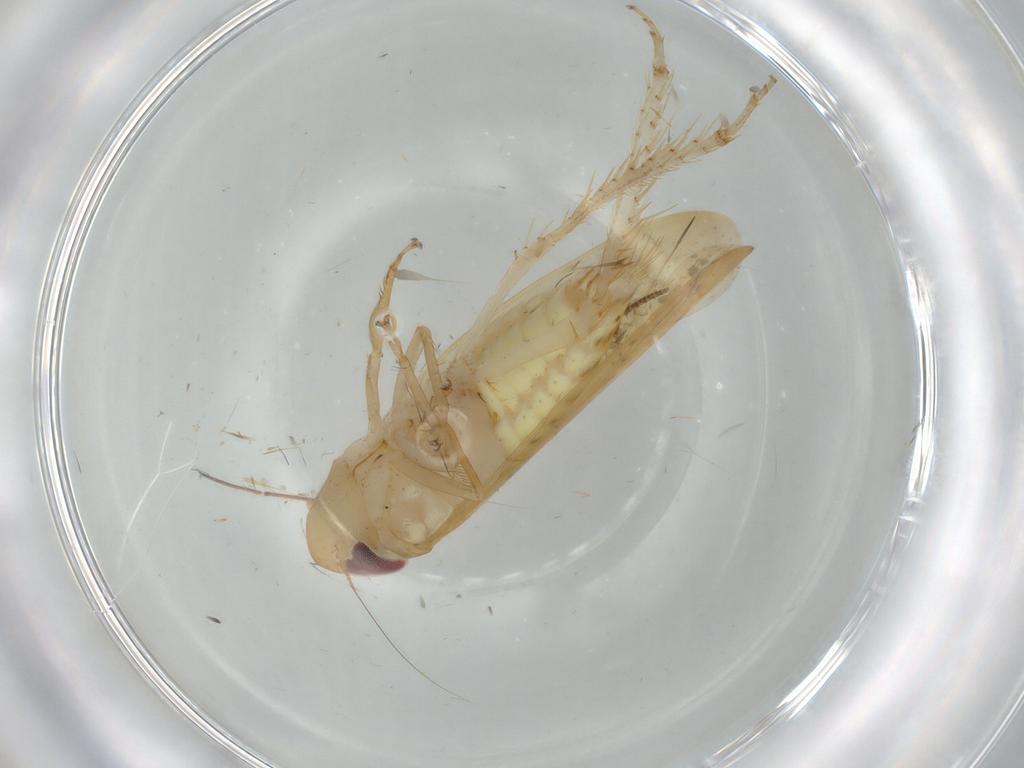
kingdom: Animalia
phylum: Arthropoda
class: Insecta
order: Hemiptera
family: Cicadellidae
